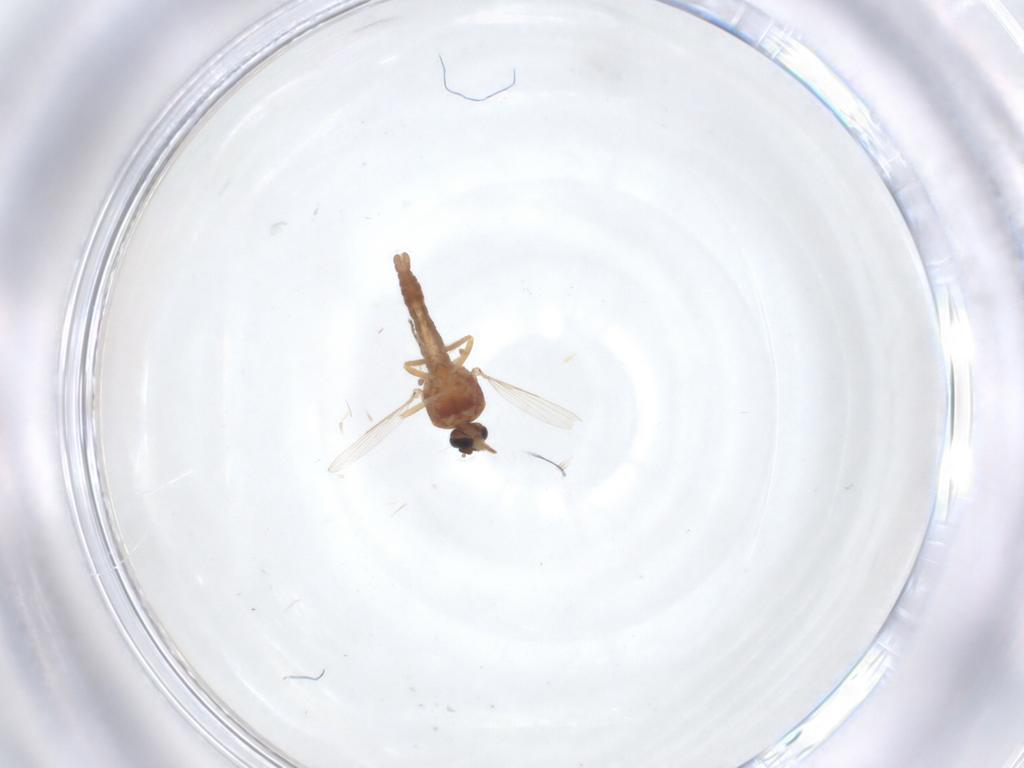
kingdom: Animalia
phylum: Arthropoda
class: Insecta
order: Diptera
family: Ceratopogonidae
